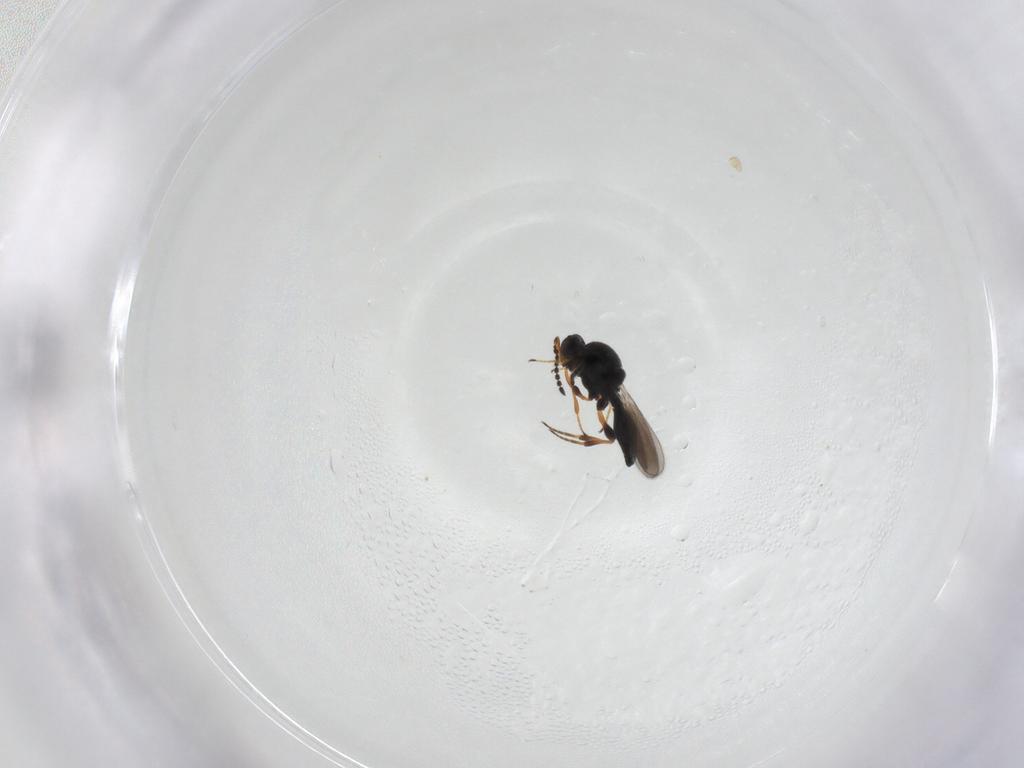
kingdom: Animalia
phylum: Arthropoda
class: Insecta
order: Hymenoptera
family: Platygastridae
